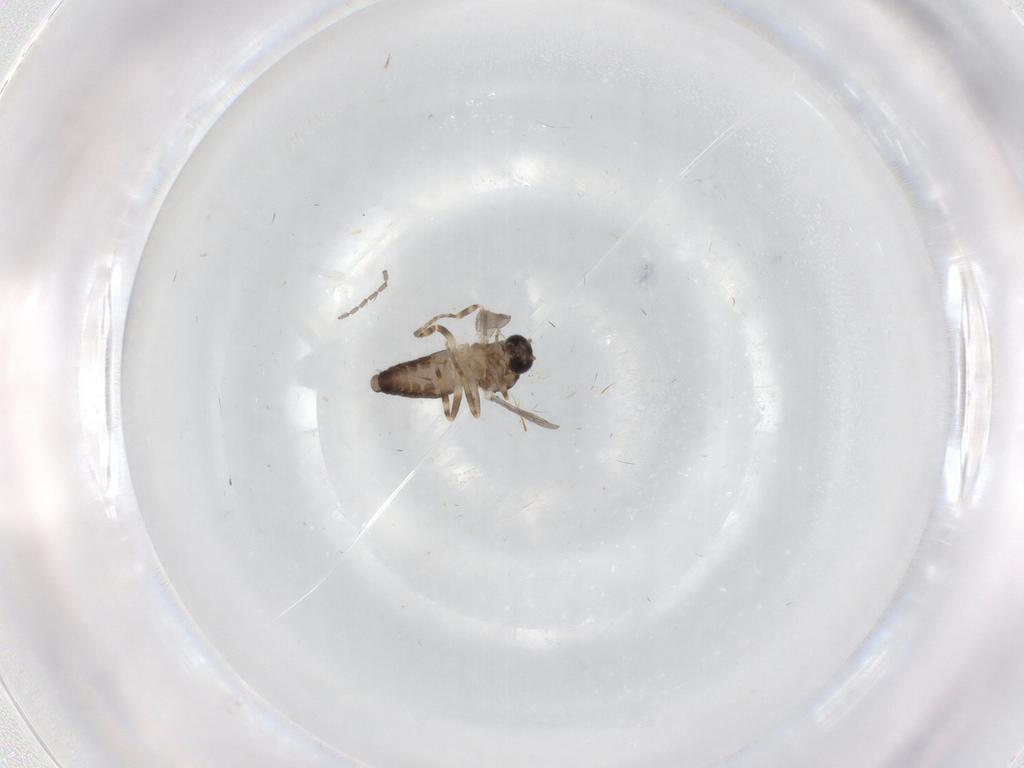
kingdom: Animalia
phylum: Arthropoda
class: Insecta
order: Diptera
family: Ceratopogonidae
